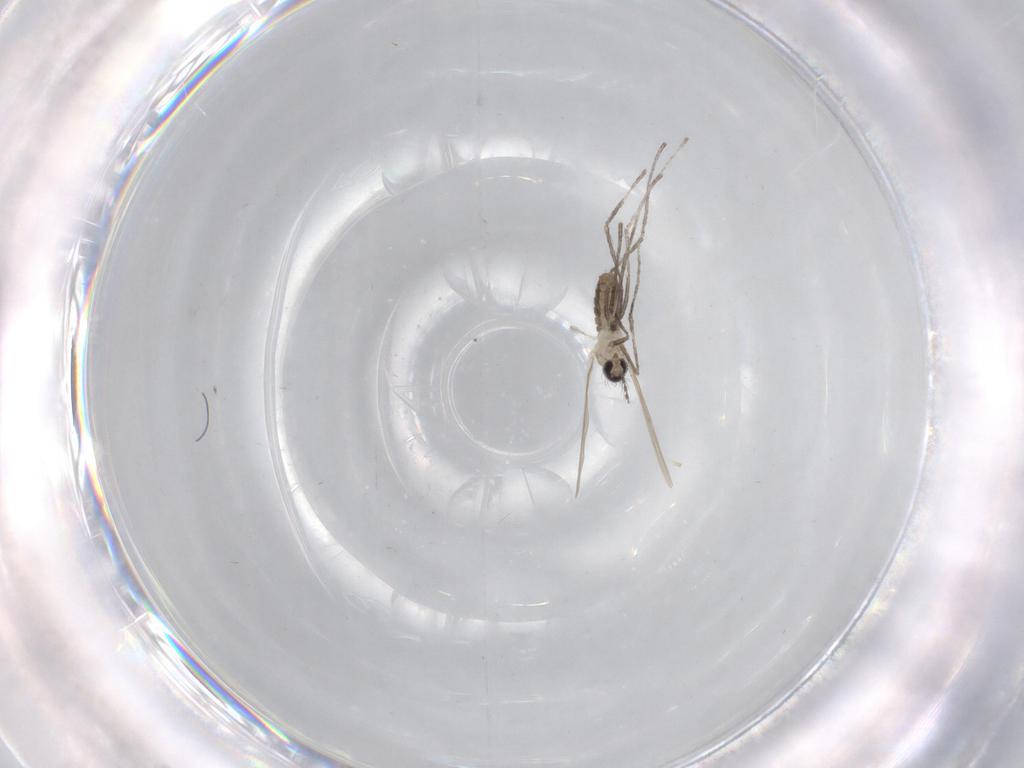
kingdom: Animalia
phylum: Arthropoda
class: Insecta
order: Diptera
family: Cecidomyiidae
